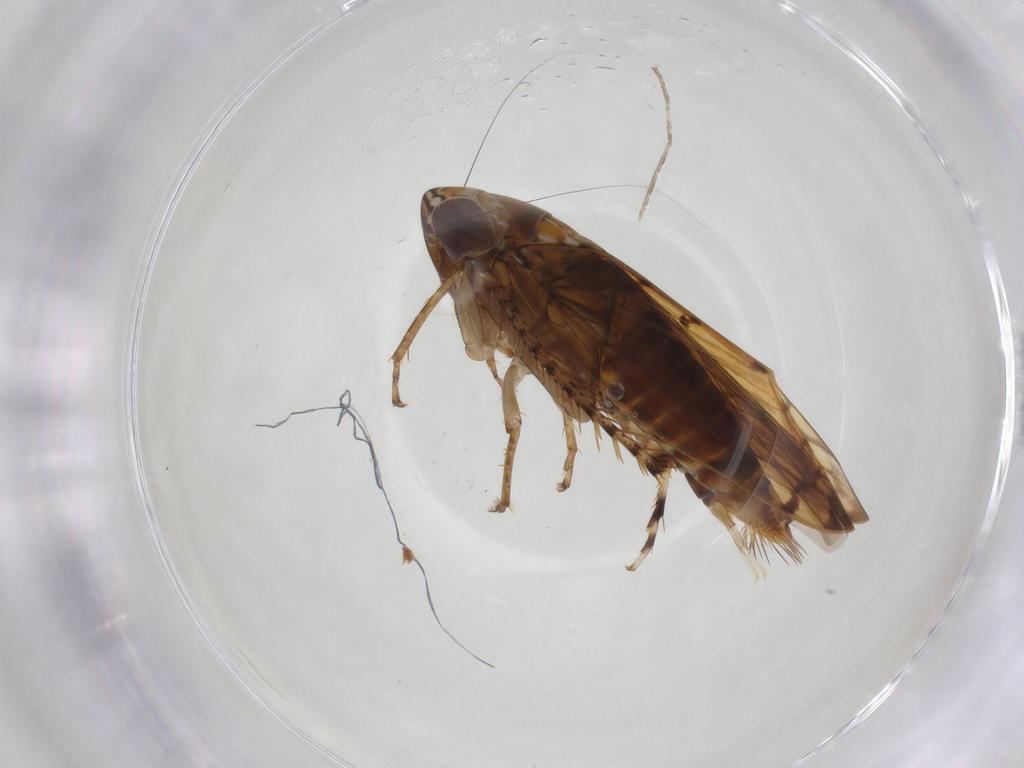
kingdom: Animalia
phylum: Arthropoda
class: Insecta
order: Hemiptera
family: Cicadellidae
